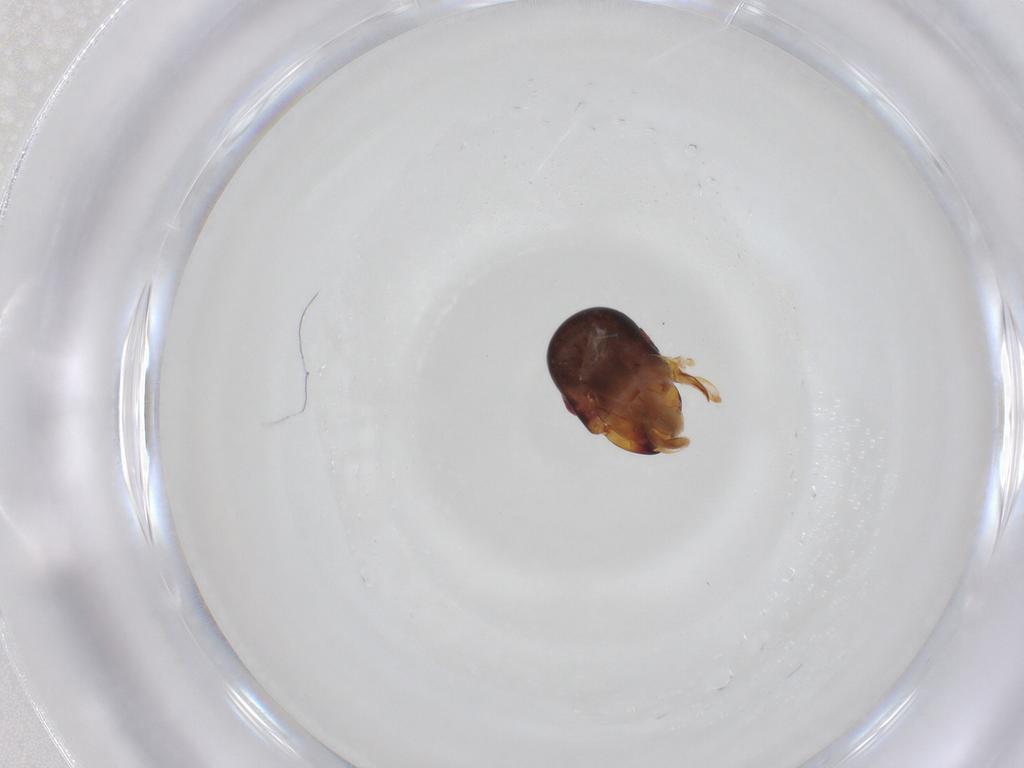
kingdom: Animalia
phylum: Arthropoda
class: Insecta
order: Blattodea
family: Termitidae
